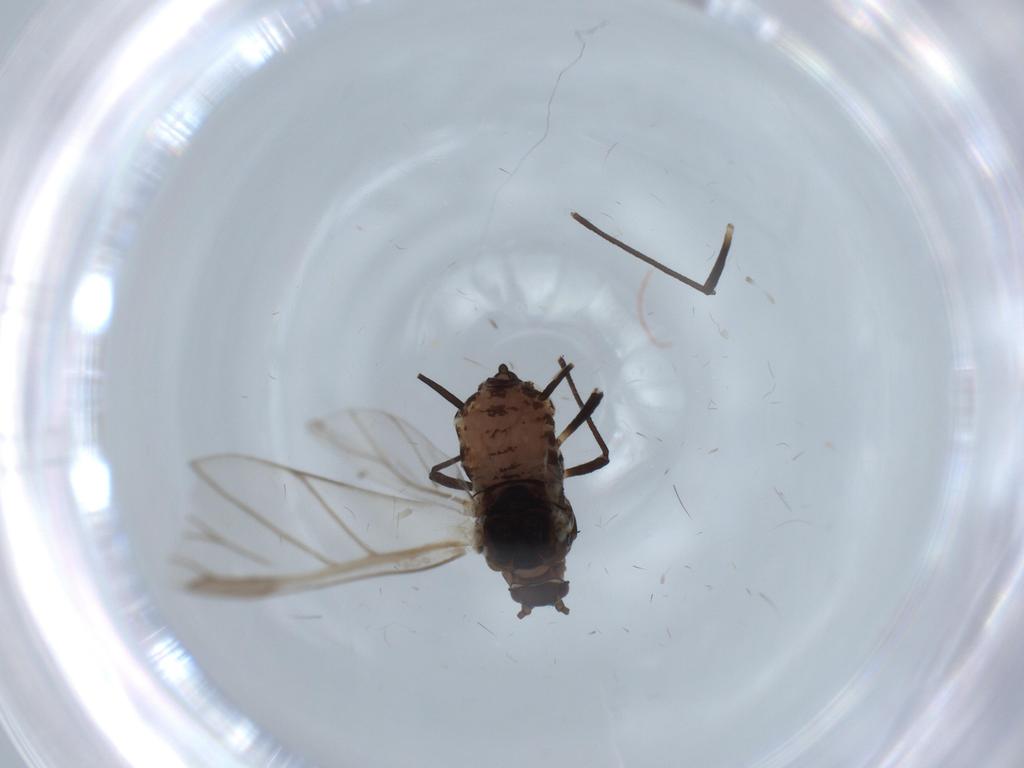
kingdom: Animalia
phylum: Arthropoda
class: Insecta
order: Hemiptera
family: Aphididae
